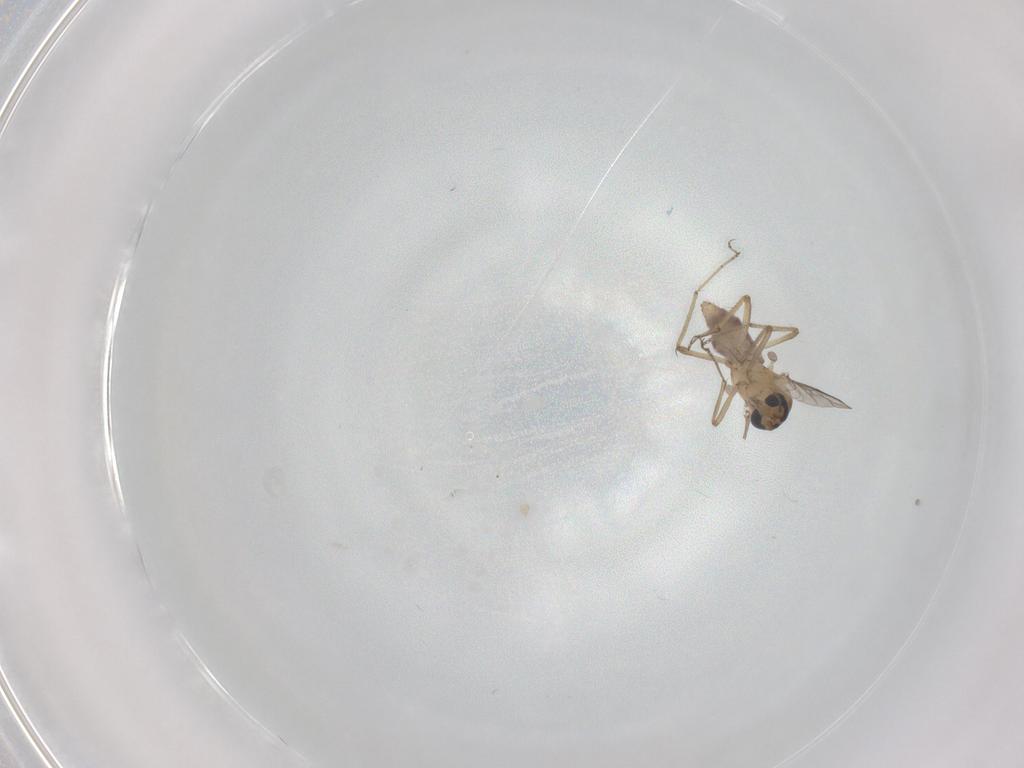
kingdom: Animalia
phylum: Arthropoda
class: Insecta
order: Diptera
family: Ceratopogonidae
